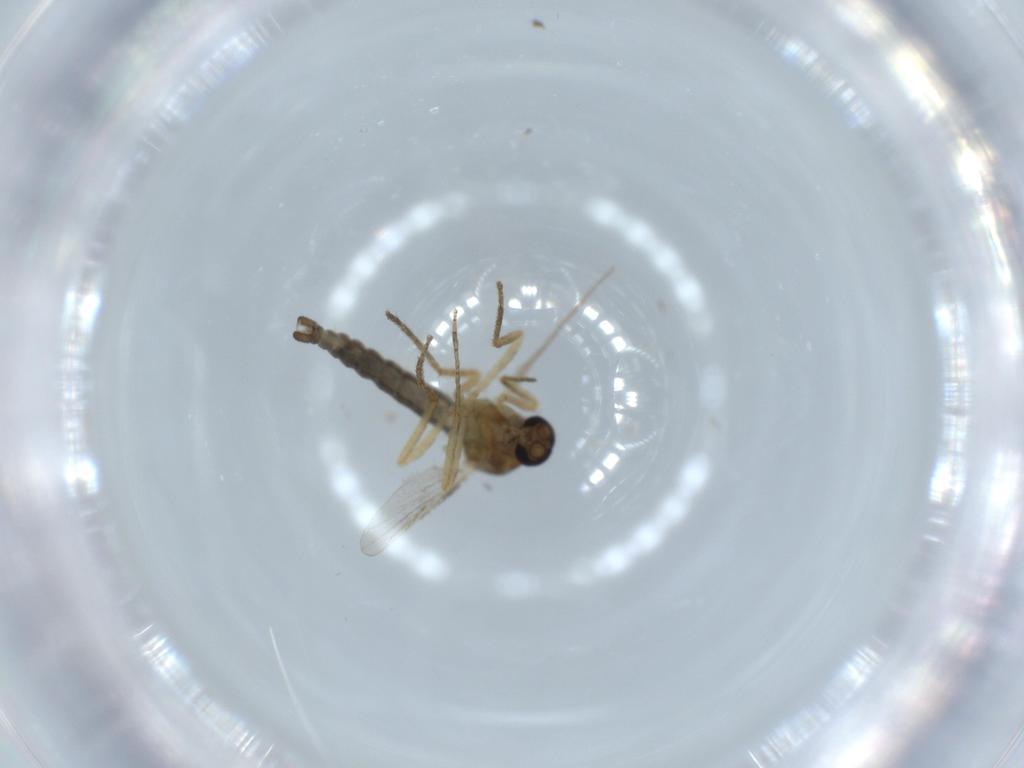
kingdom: Animalia
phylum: Arthropoda
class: Insecta
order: Diptera
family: Ceratopogonidae
